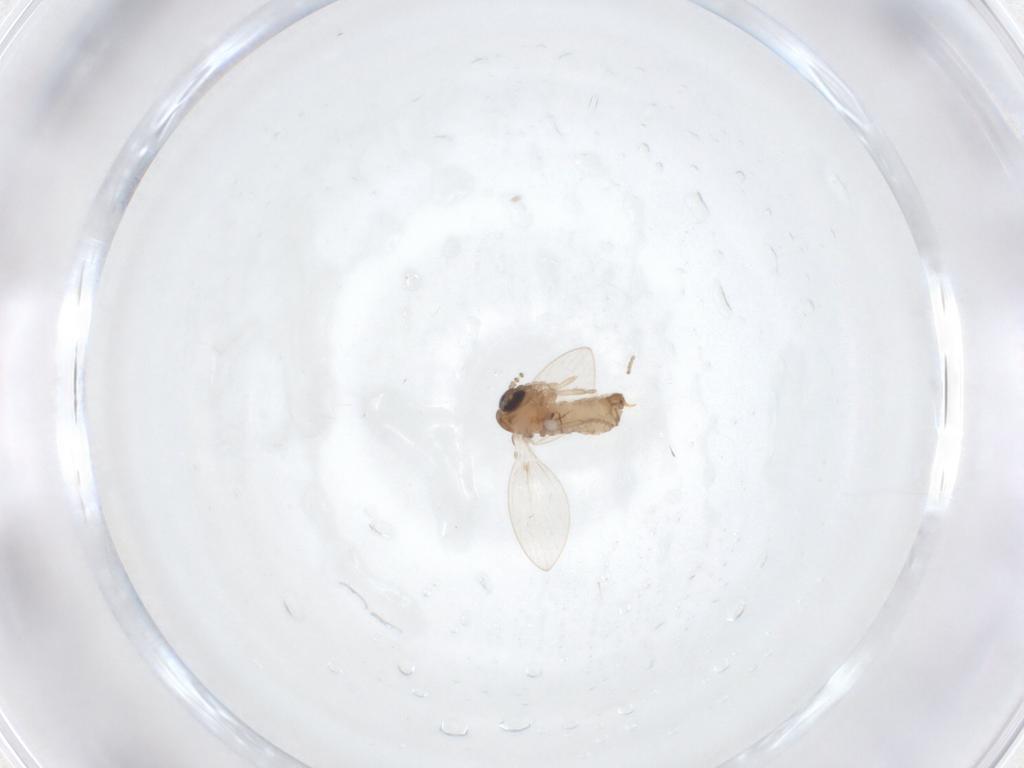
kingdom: Animalia
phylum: Arthropoda
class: Insecta
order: Diptera
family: Psychodidae
